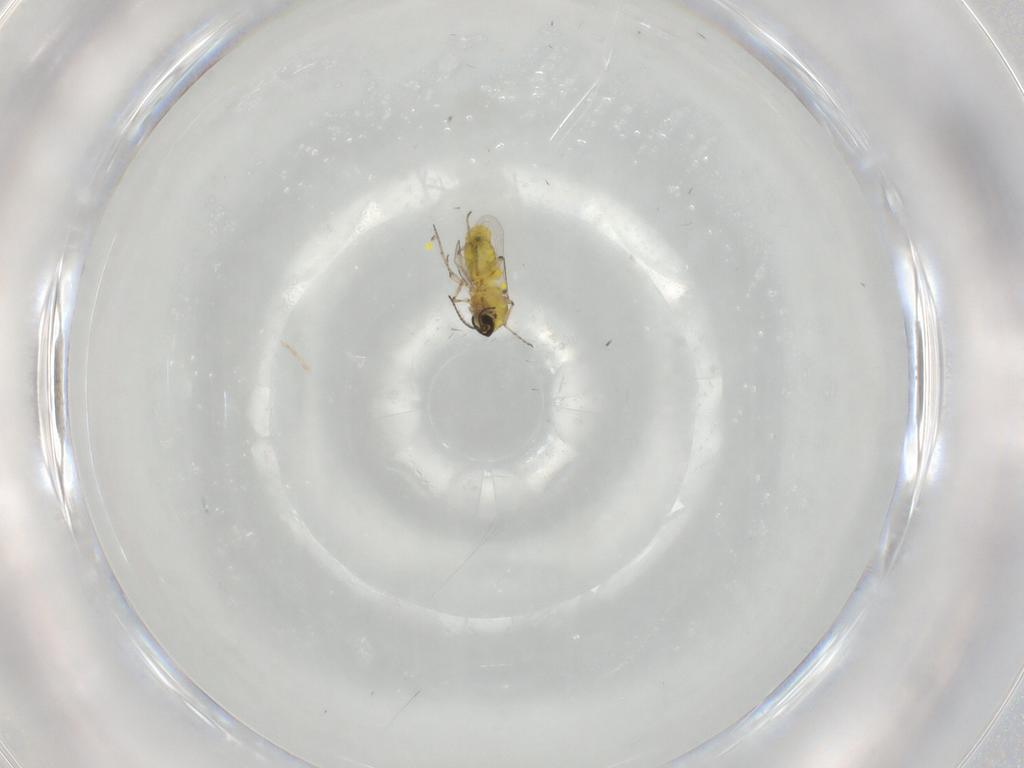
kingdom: Animalia
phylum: Arthropoda
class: Insecta
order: Diptera
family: Ceratopogonidae
